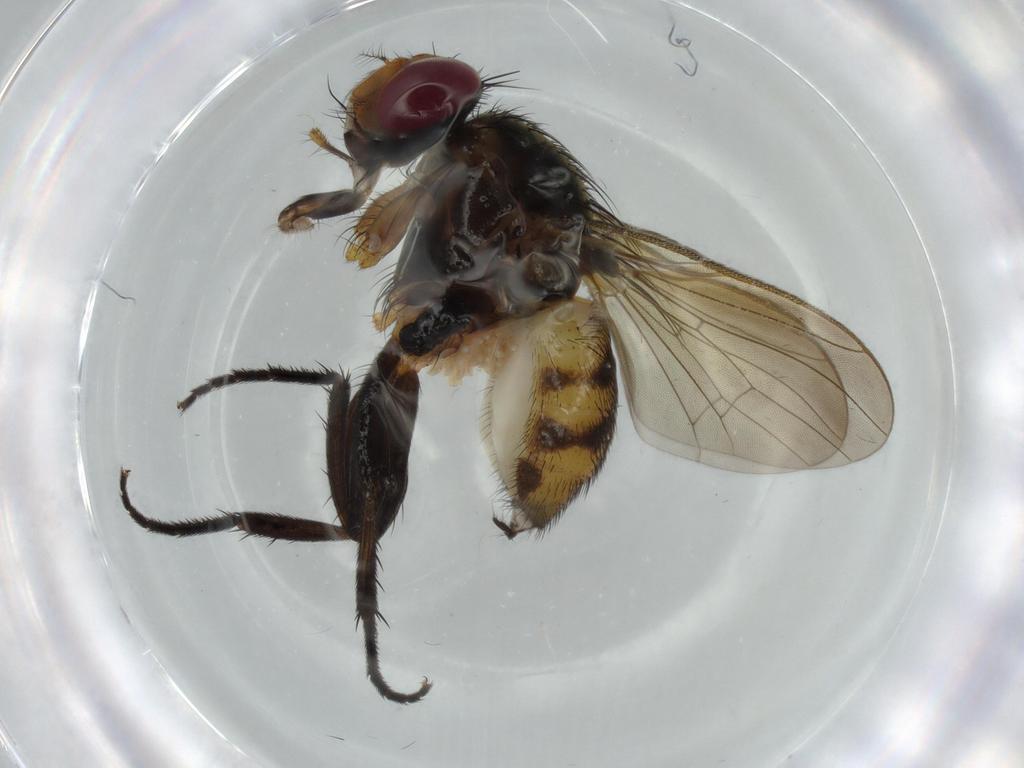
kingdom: Animalia
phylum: Arthropoda
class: Insecta
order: Diptera
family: Anthomyiidae
